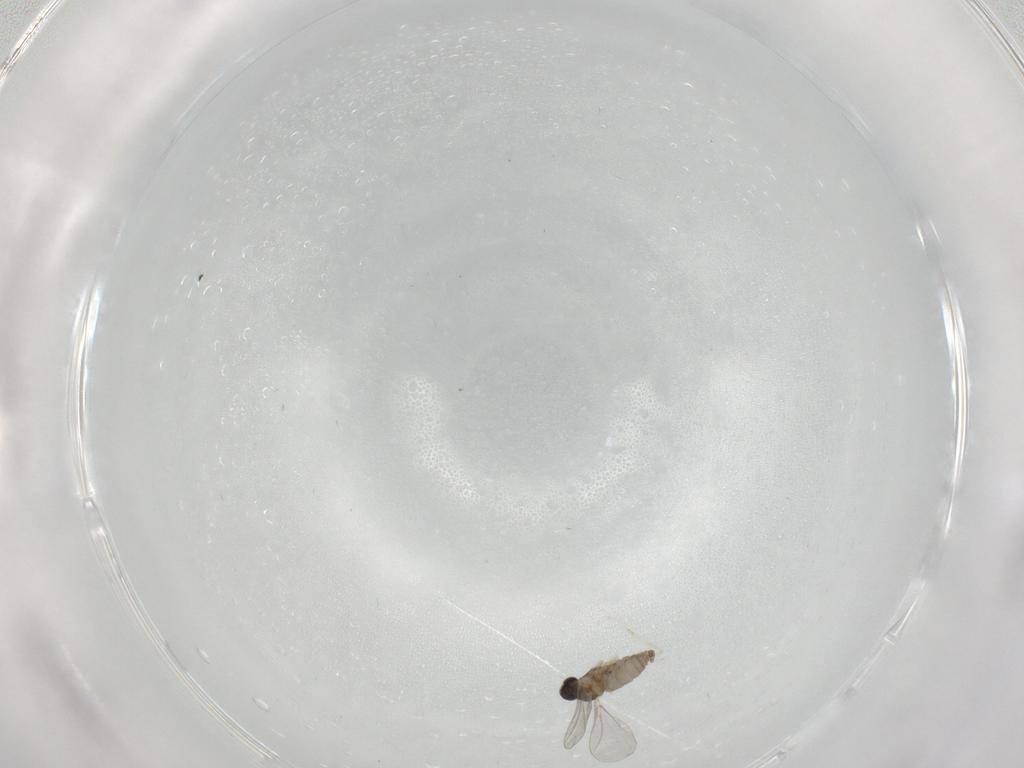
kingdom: Animalia
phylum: Arthropoda
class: Insecta
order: Diptera
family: Cecidomyiidae
